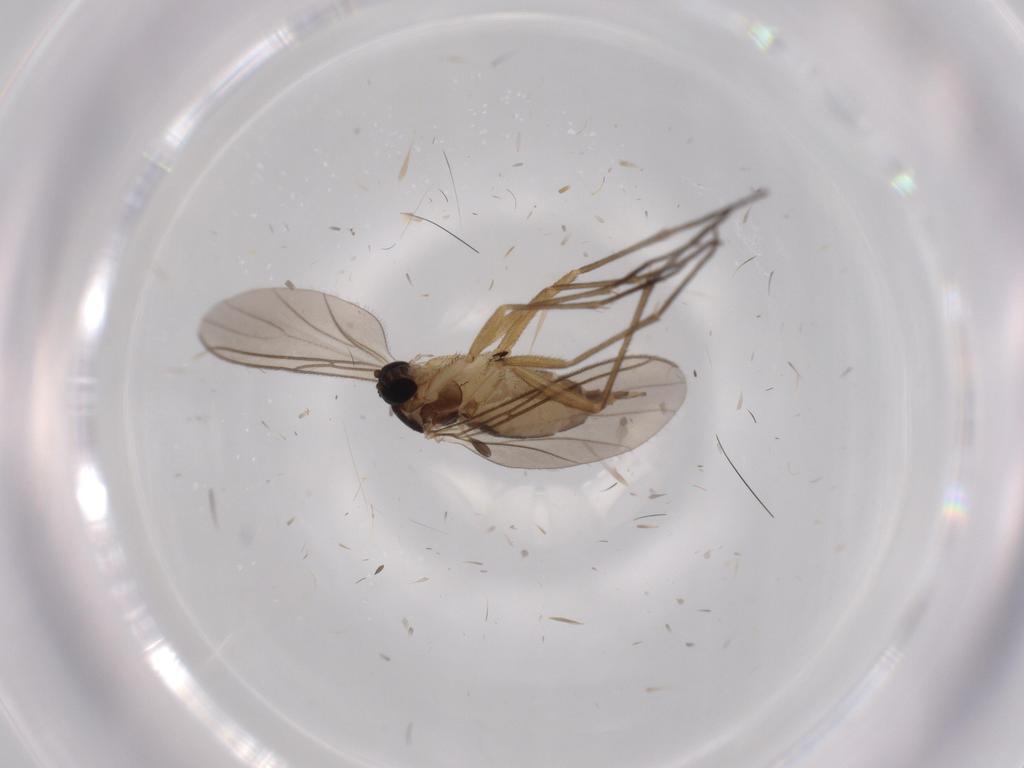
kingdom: Animalia
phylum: Arthropoda
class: Insecta
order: Diptera
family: Sciaridae
